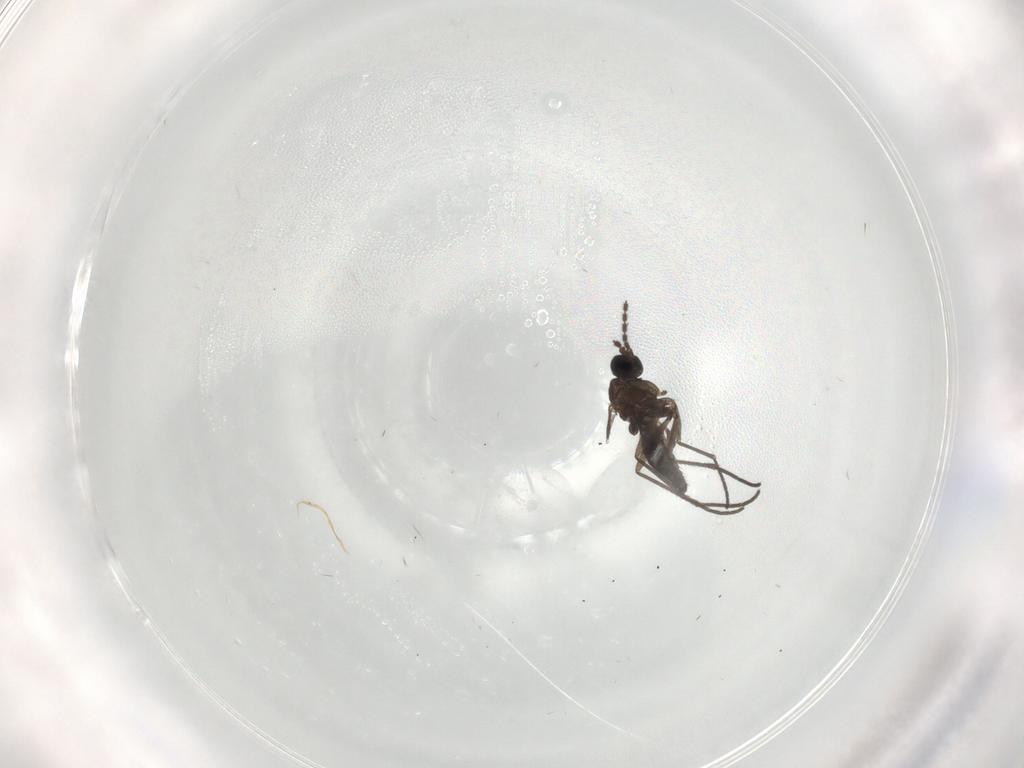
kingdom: Animalia
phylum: Arthropoda
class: Insecta
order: Diptera
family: Sciaridae
